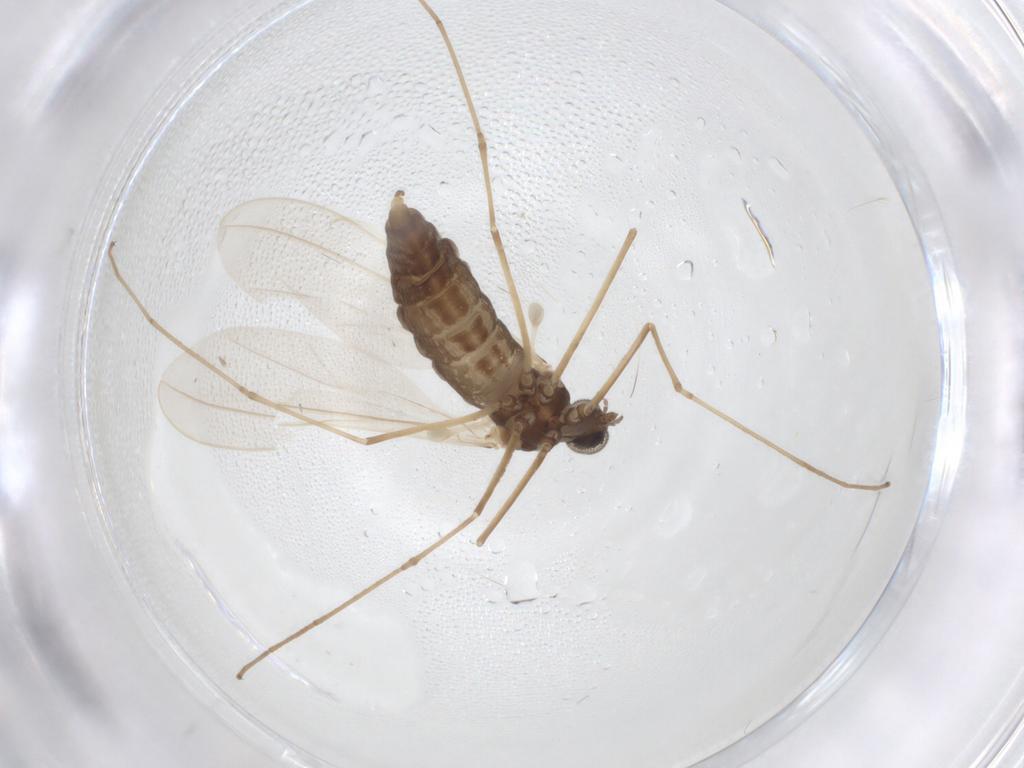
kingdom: Animalia
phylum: Arthropoda
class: Insecta
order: Diptera
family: Cecidomyiidae
